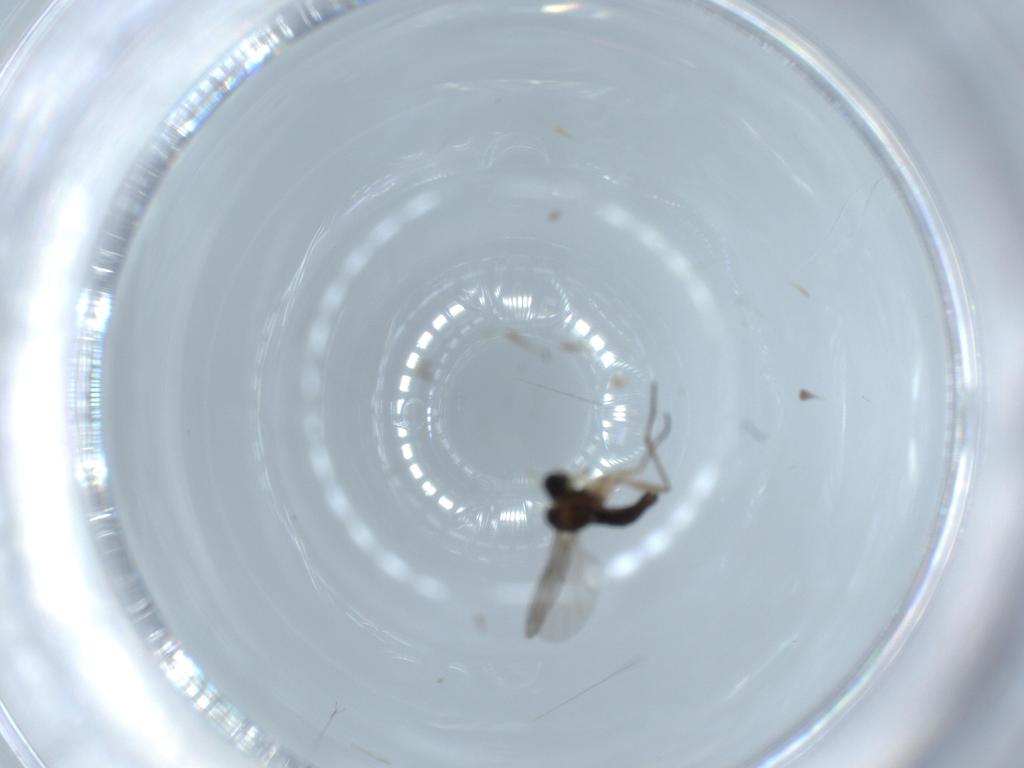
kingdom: Animalia
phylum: Arthropoda
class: Insecta
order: Diptera
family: Sciaridae
